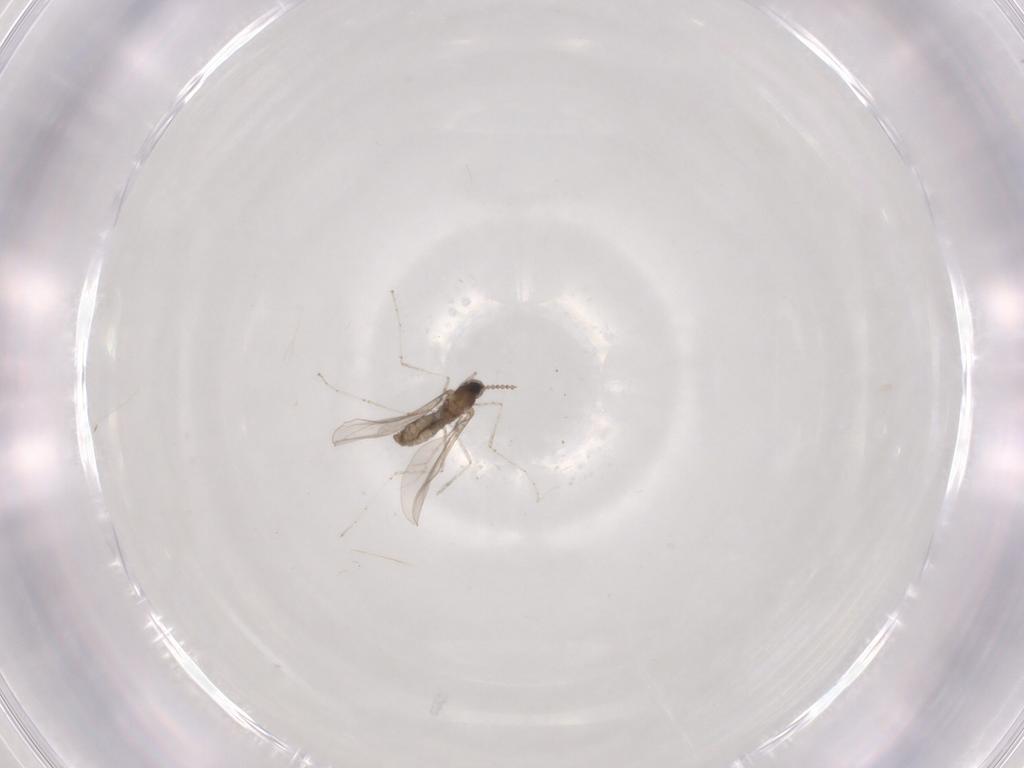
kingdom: Animalia
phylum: Arthropoda
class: Insecta
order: Diptera
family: Cecidomyiidae
